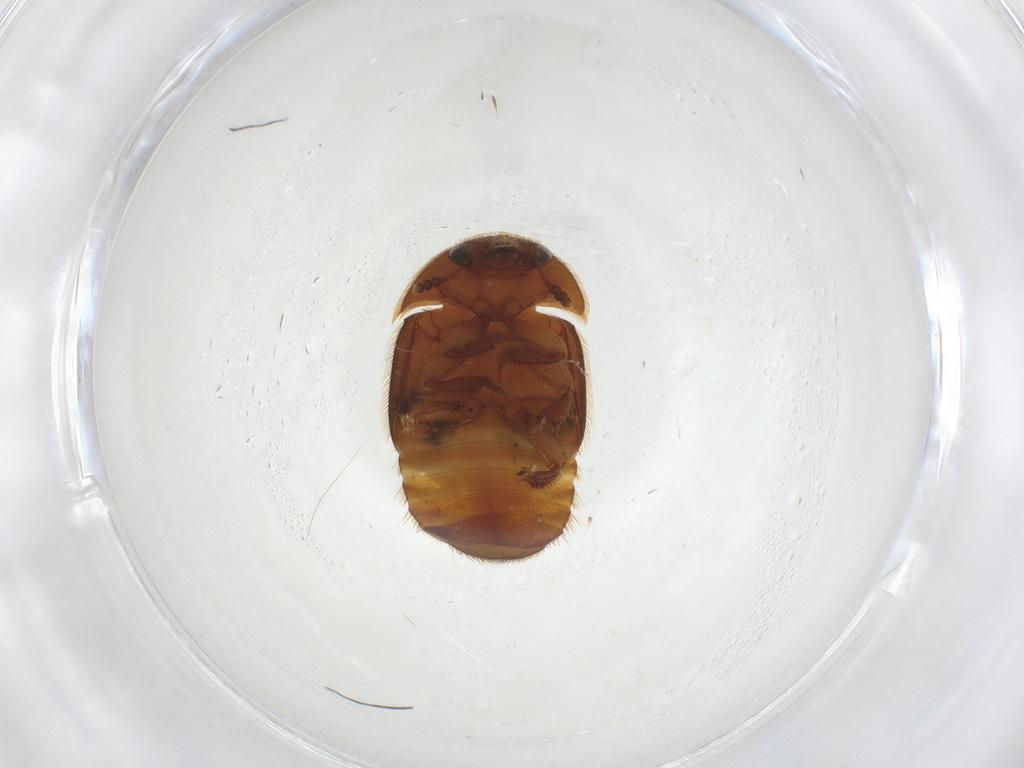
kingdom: Animalia
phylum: Arthropoda
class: Insecta
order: Coleoptera
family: Nitidulidae
